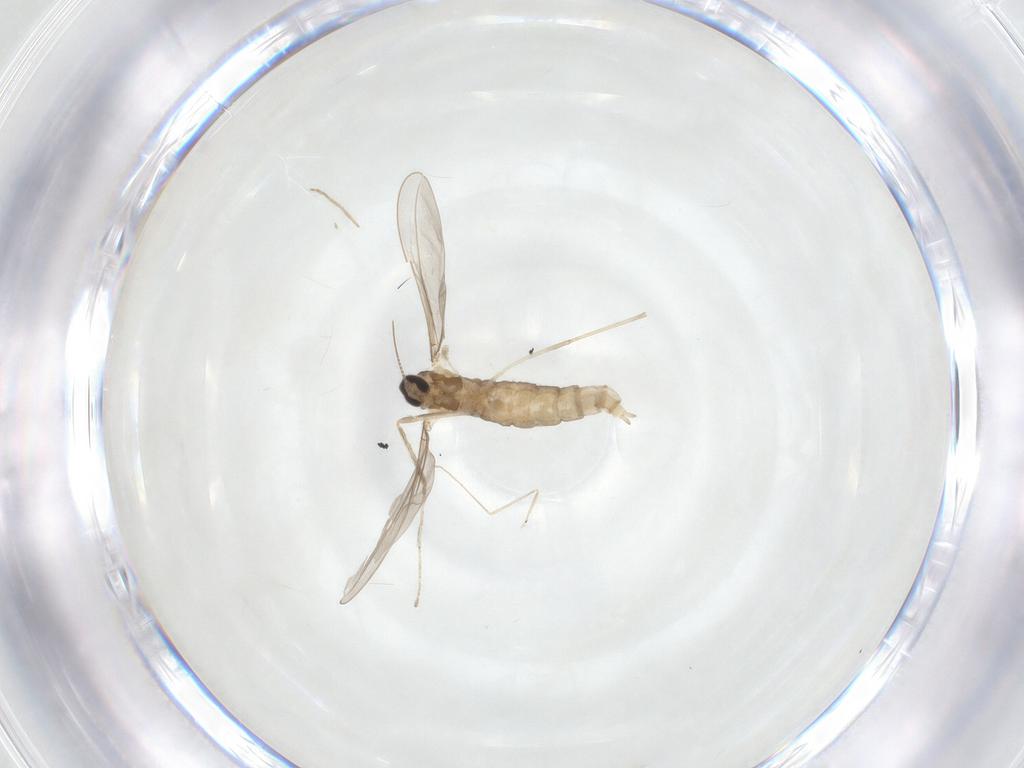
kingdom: Animalia
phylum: Arthropoda
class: Insecta
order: Diptera
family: Cecidomyiidae
